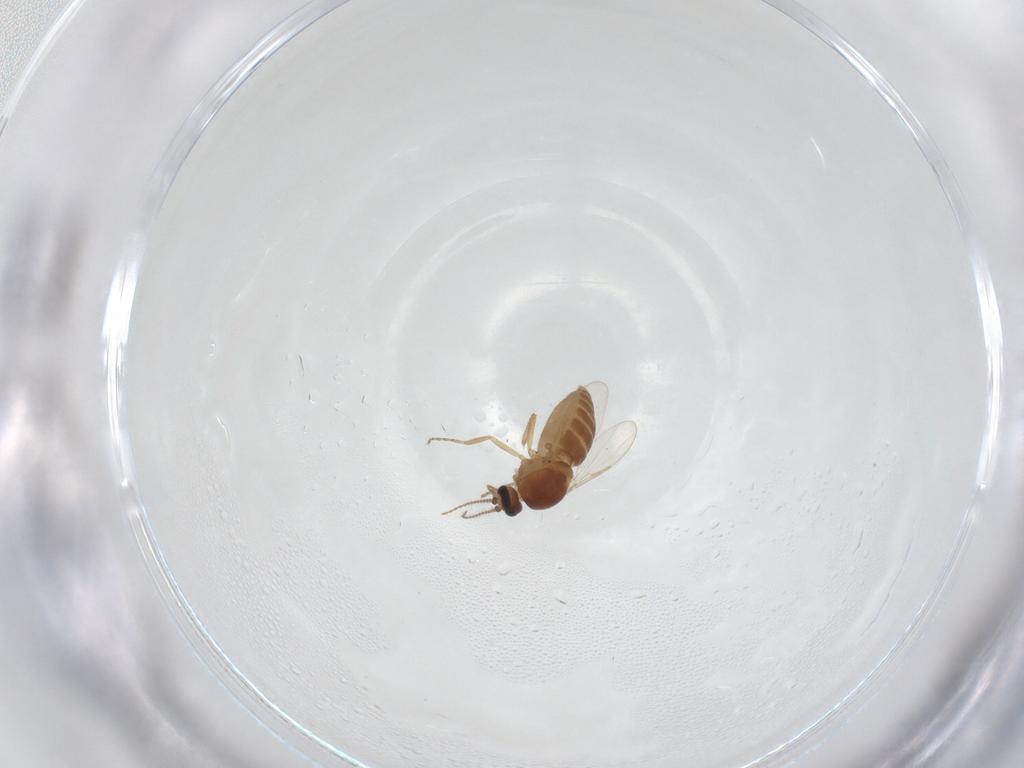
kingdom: Animalia
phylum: Arthropoda
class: Insecta
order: Diptera
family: Ceratopogonidae
